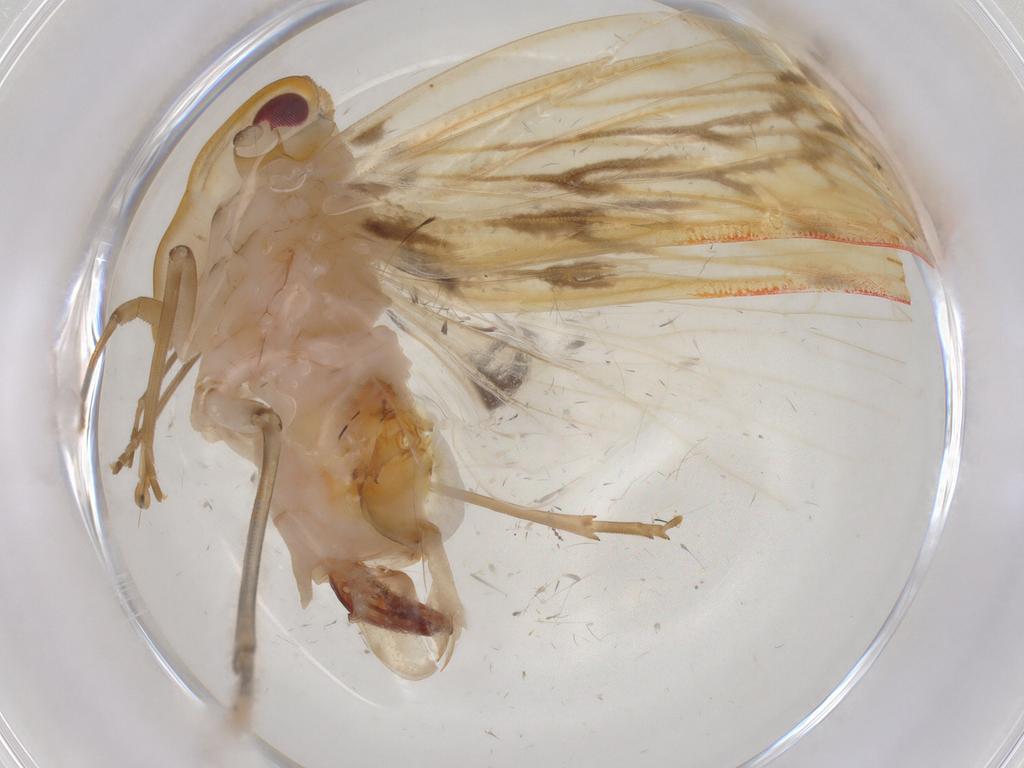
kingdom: Animalia
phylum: Arthropoda
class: Insecta
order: Hemiptera
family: Derbidae
